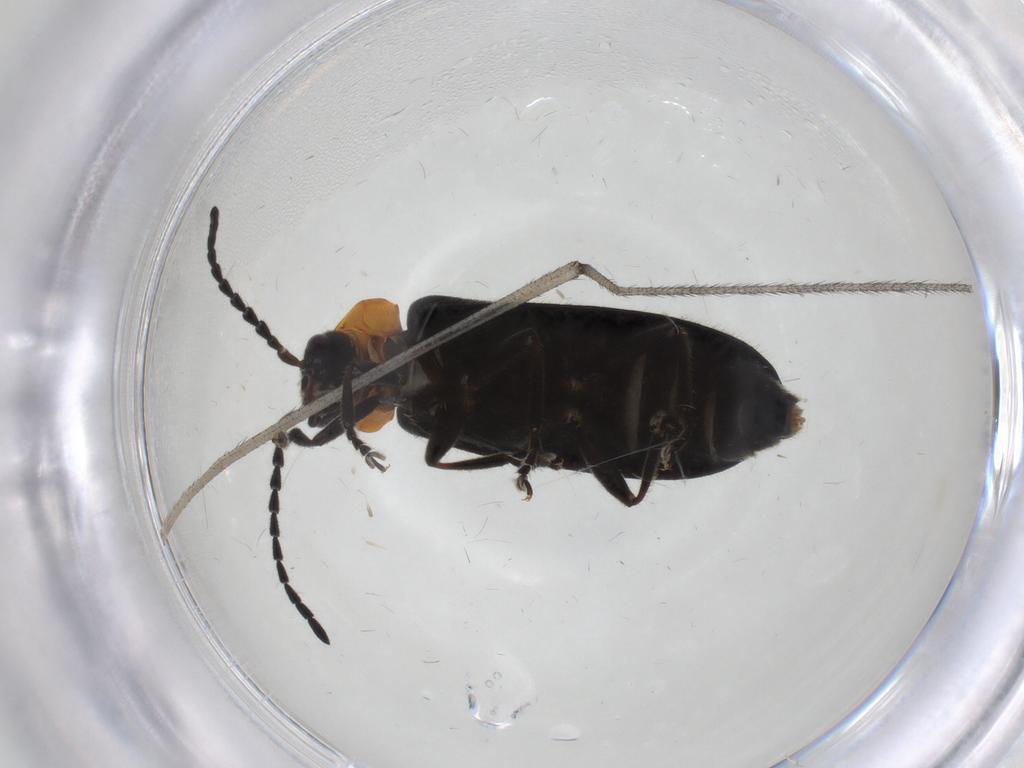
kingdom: Animalia
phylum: Arthropoda
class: Insecta
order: Coleoptera
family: Cantharidae
